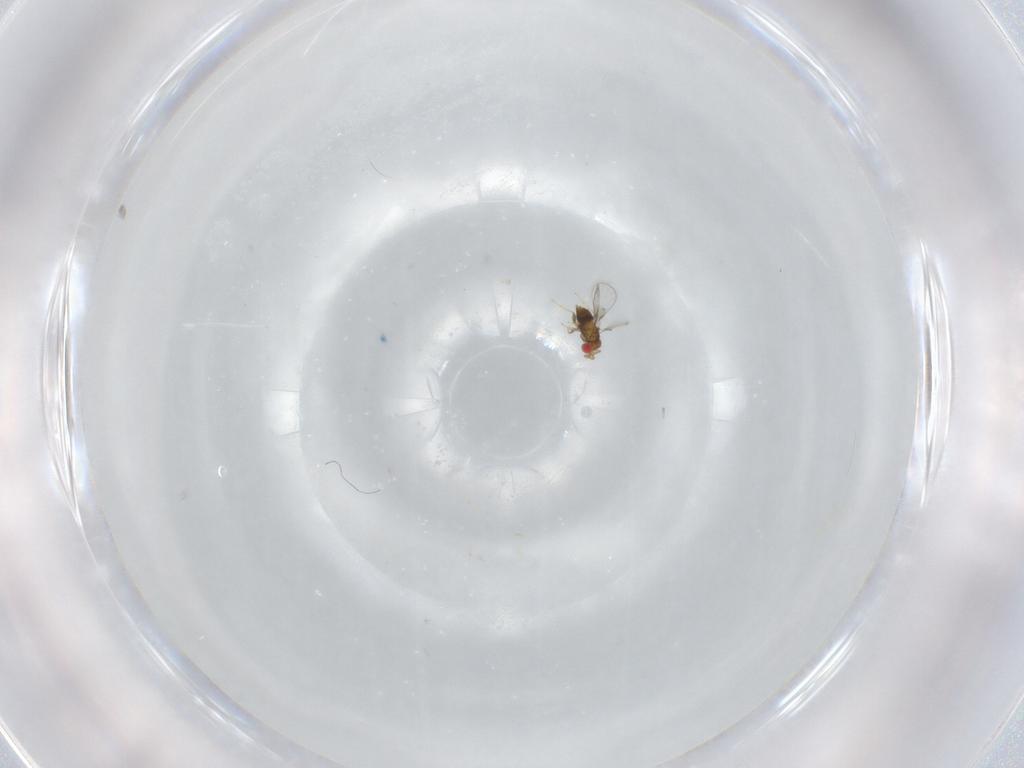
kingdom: Animalia
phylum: Arthropoda
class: Insecta
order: Hymenoptera
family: Trichogrammatidae
